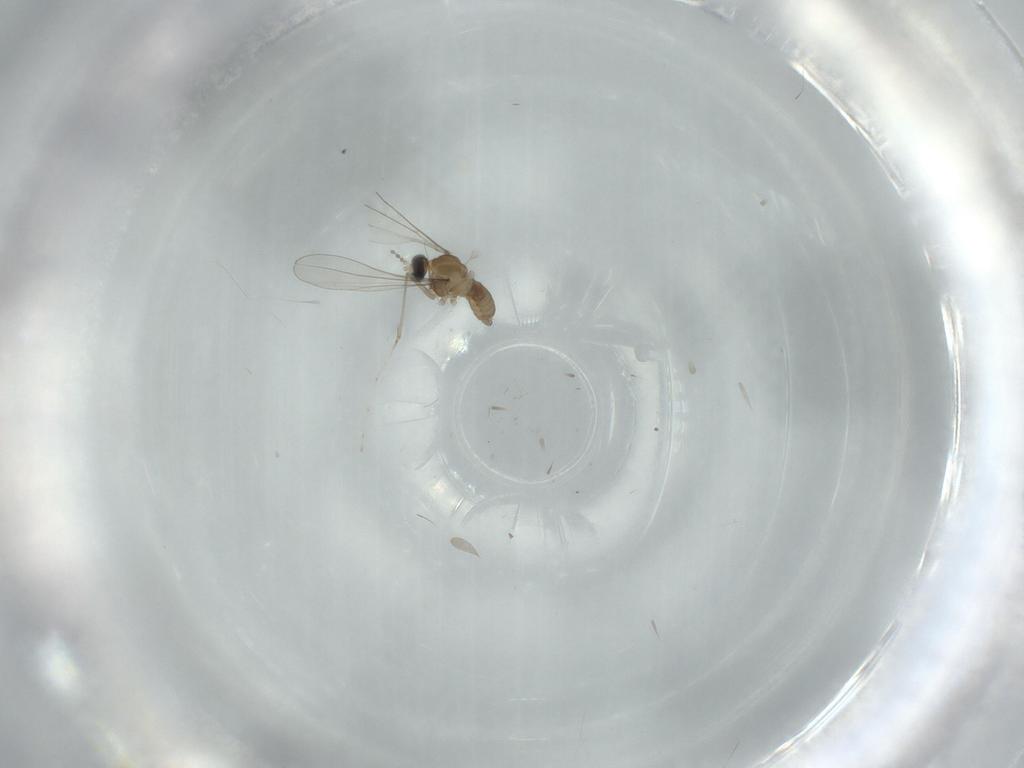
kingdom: Animalia
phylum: Arthropoda
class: Insecta
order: Diptera
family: Cecidomyiidae
